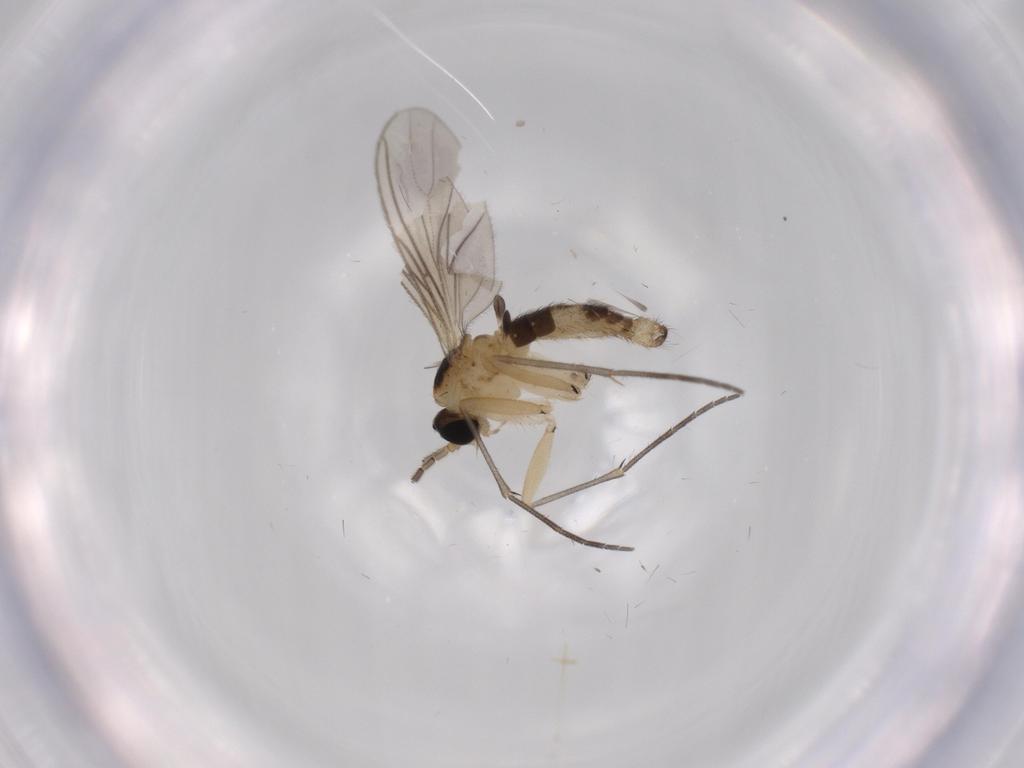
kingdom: Animalia
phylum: Arthropoda
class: Insecta
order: Diptera
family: Sciaridae
